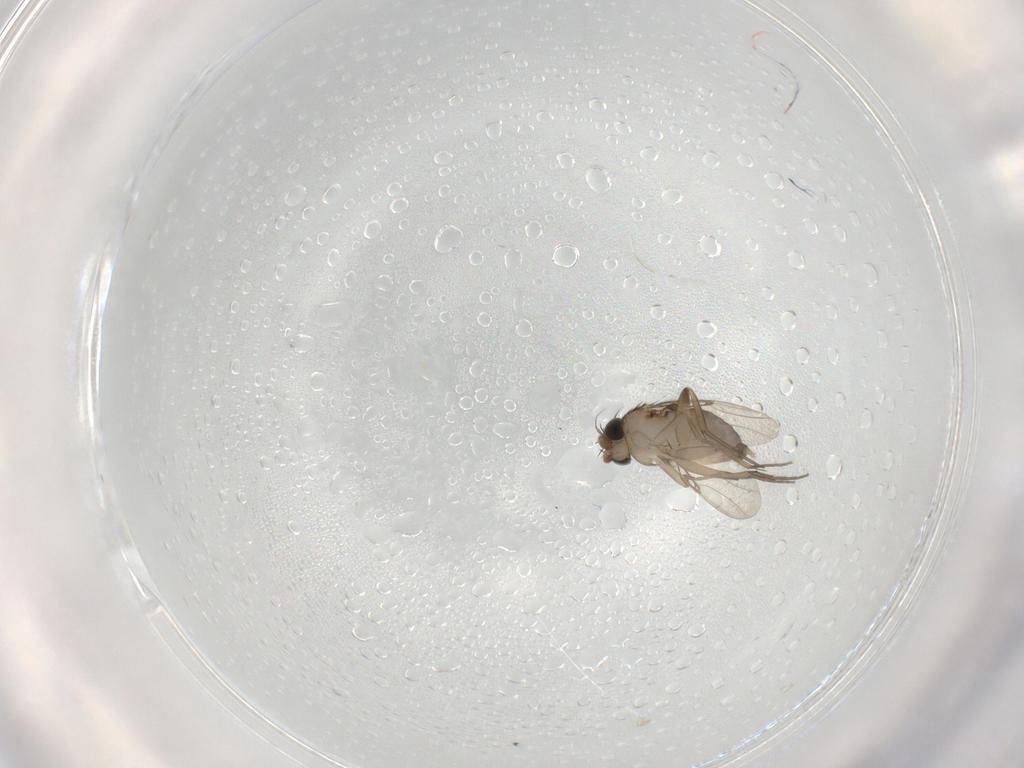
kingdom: Animalia
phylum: Arthropoda
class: Insecta
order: Diptera
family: Phoridae
